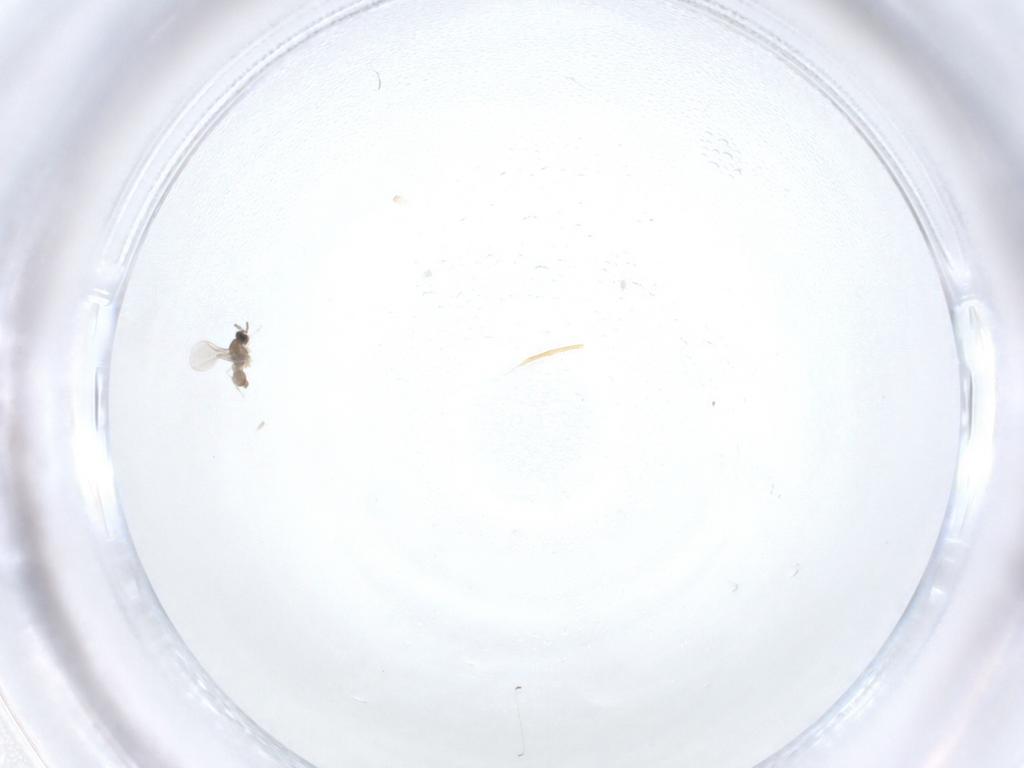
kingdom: Animalia
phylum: Arthropoda
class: Insecta
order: Diptera
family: Cecidomyiidae
